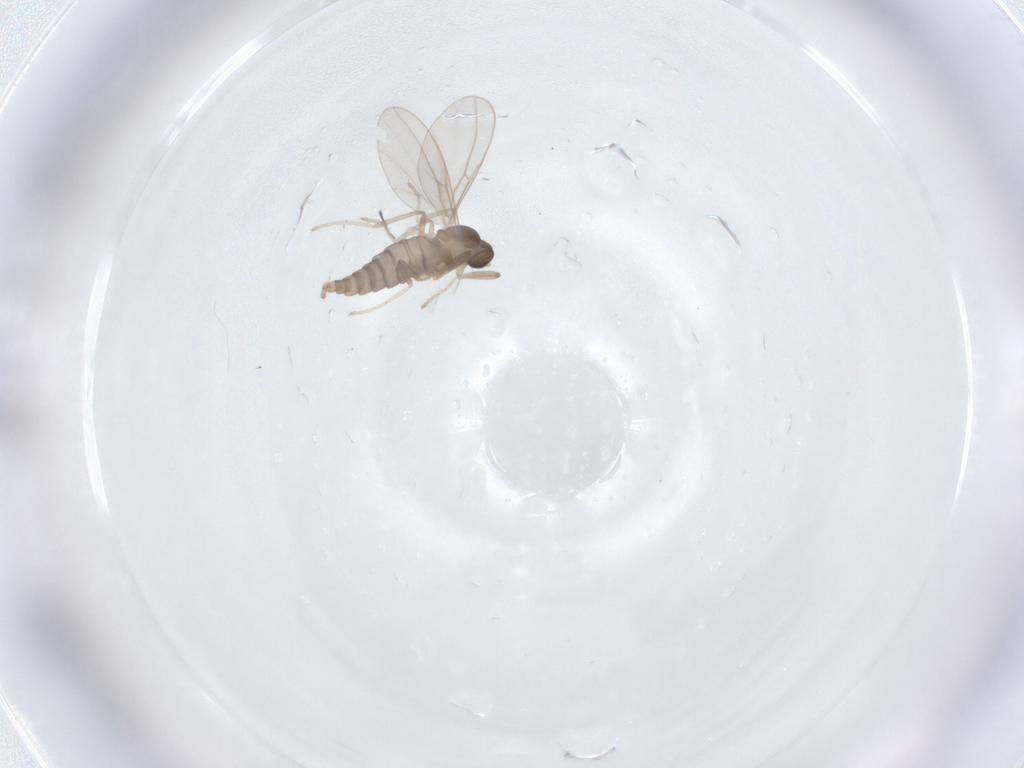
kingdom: Animalia
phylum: Arthropoda
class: Insecta
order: Diptera
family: Cecidomyiidae
